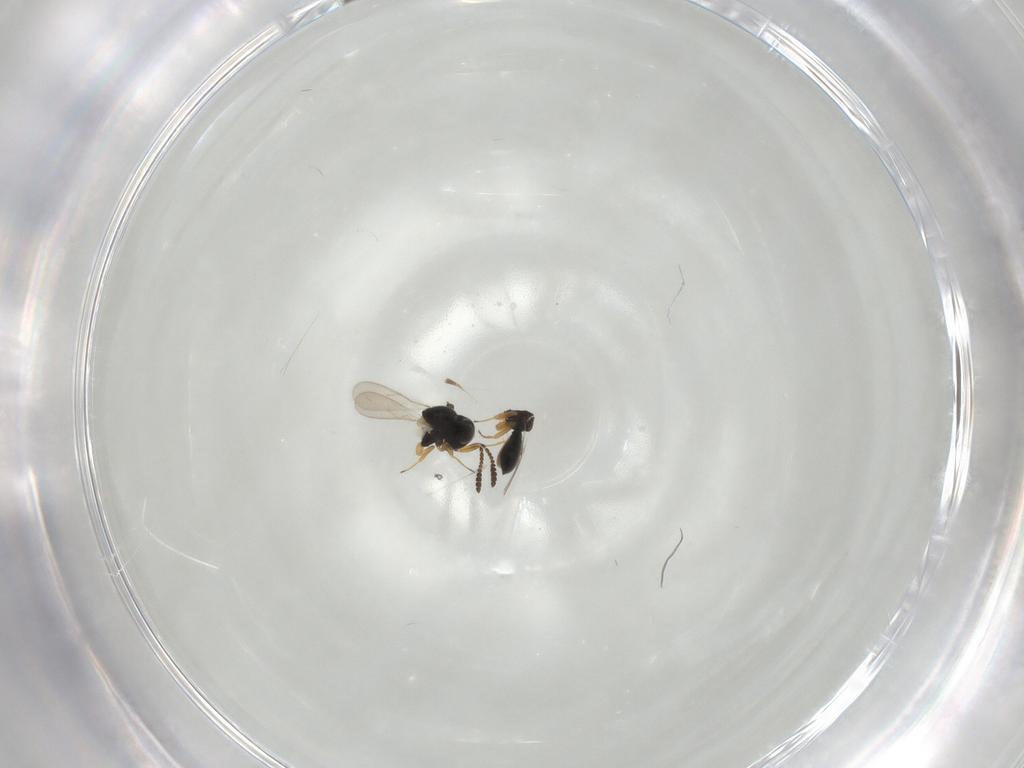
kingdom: Animalia
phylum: Arthropoda
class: Insecta
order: Hymenoptera
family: Scelionidae
